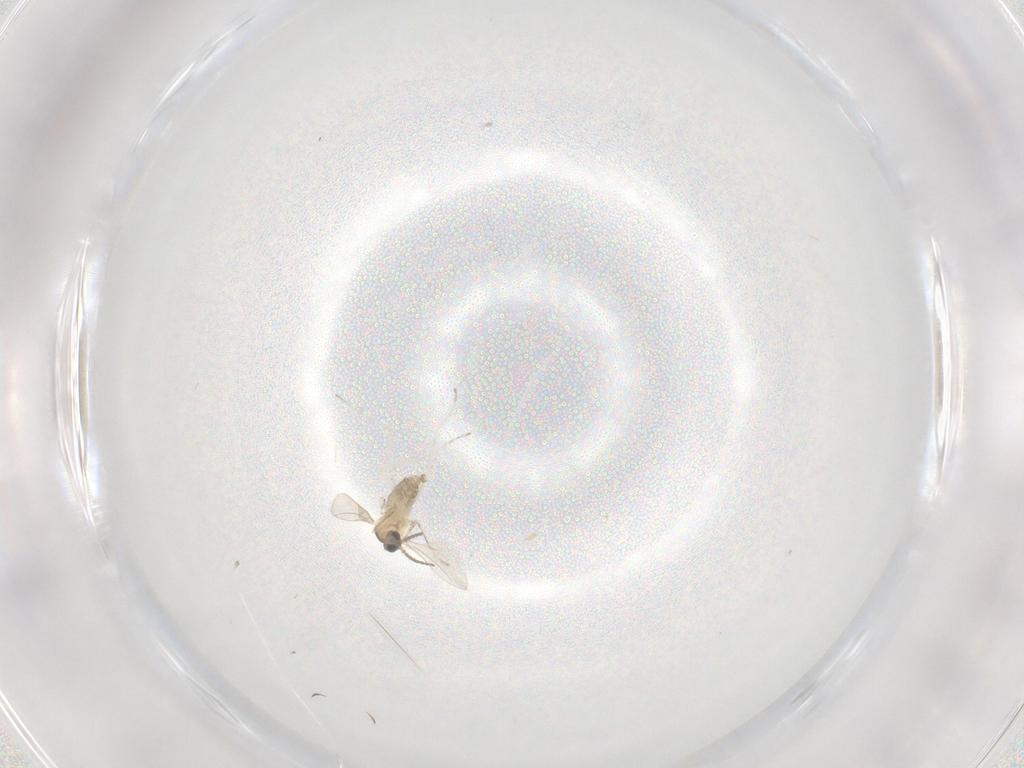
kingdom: Animalia
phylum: Arthropoda
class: Insecta
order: Diptera
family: Cecidomyiidae
